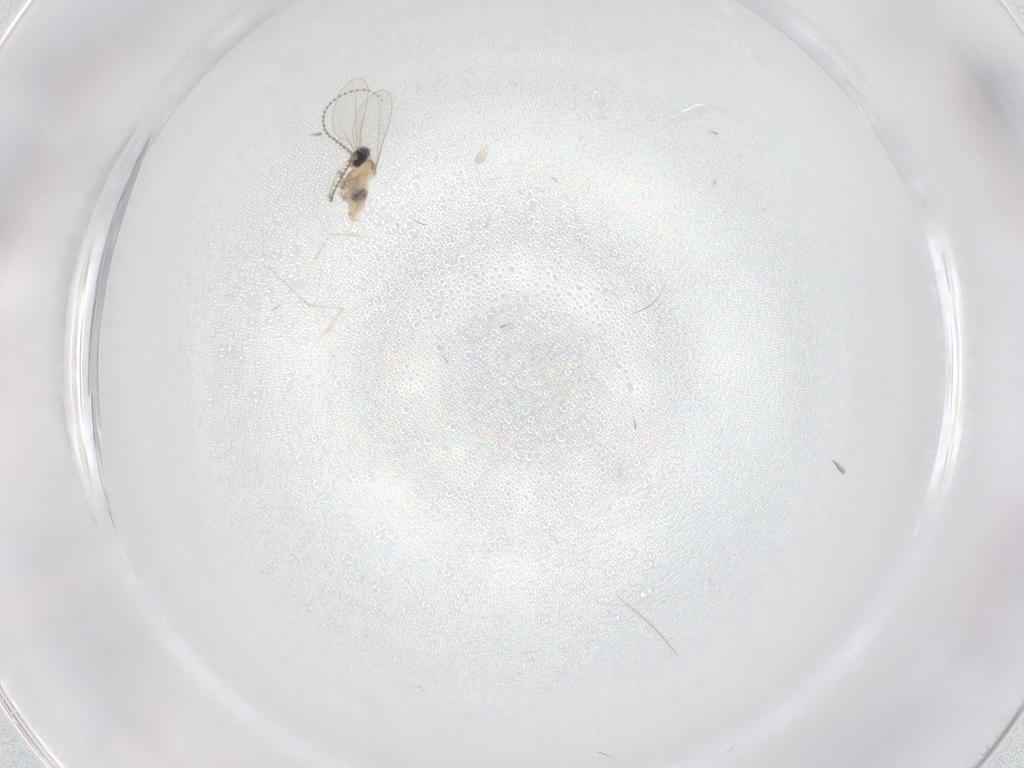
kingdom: Animalia
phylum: Arthropoda
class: Insecta
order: Diptera
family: Cecidomyiidae
